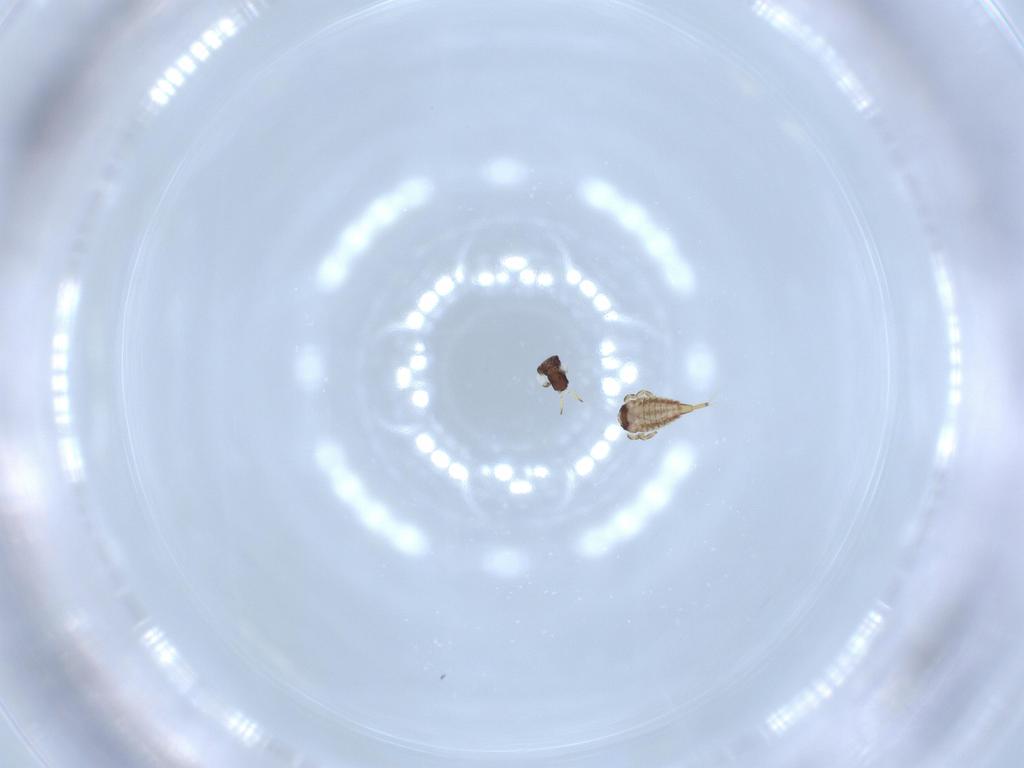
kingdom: Animalia
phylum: Arthropoda
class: Insecta
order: Thysanoptera
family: Phlaeothripidae
